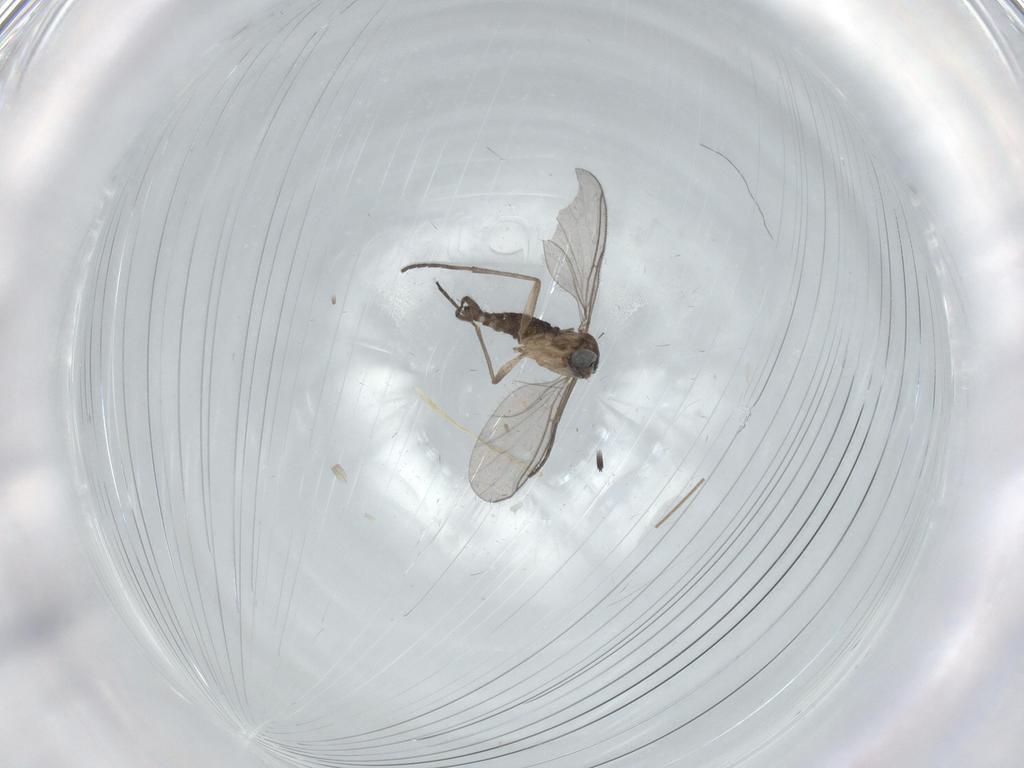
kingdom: Animalia
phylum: Arthropoda
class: Insecta
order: Diptera
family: Sciaridae
